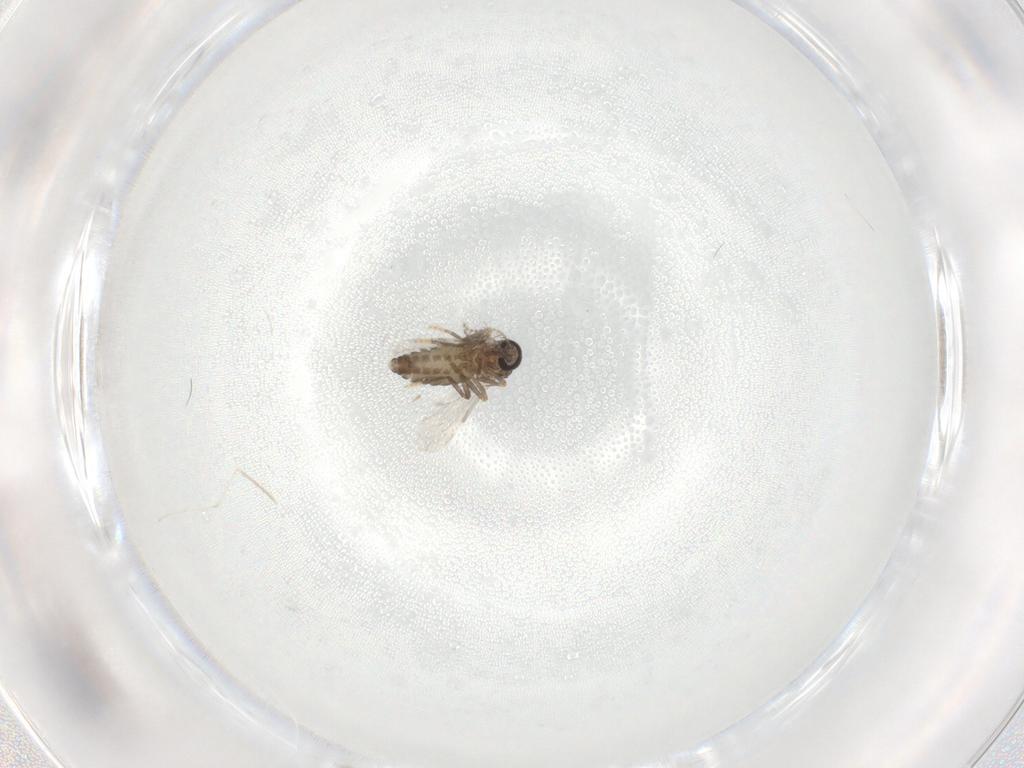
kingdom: Animalia
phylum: Arthropoda
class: Insecta
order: Diptera
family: Ceratopogonidae
